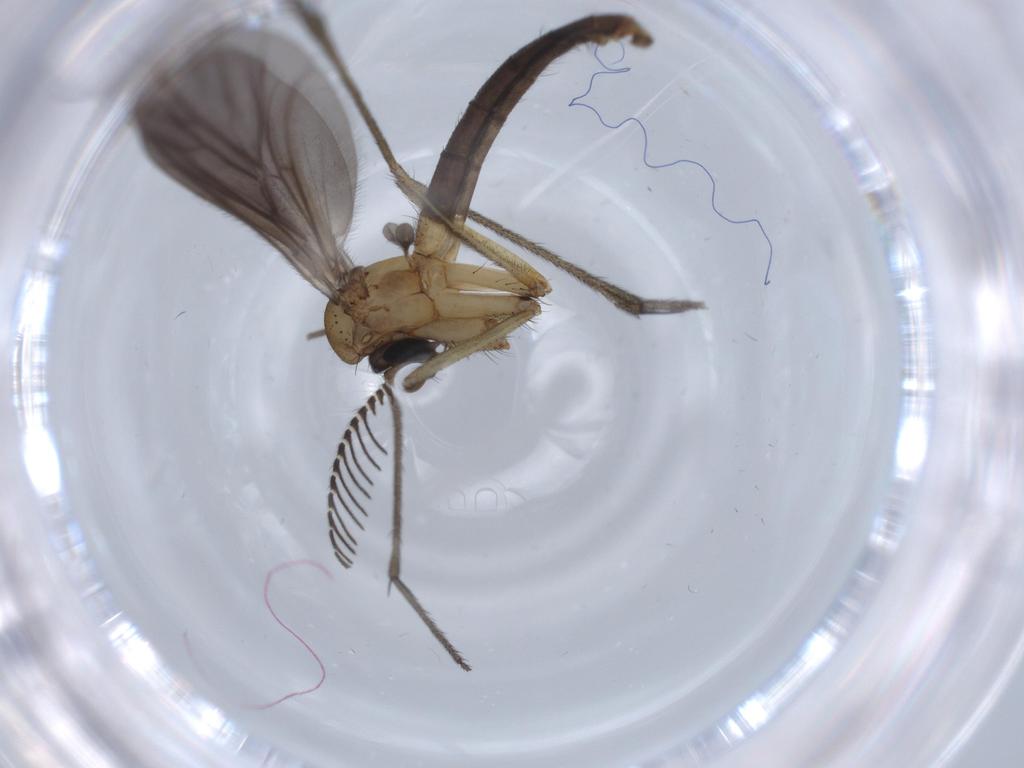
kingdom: Animalia
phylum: Arthropoda
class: Insecta
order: Diptera
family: Milichiidae
